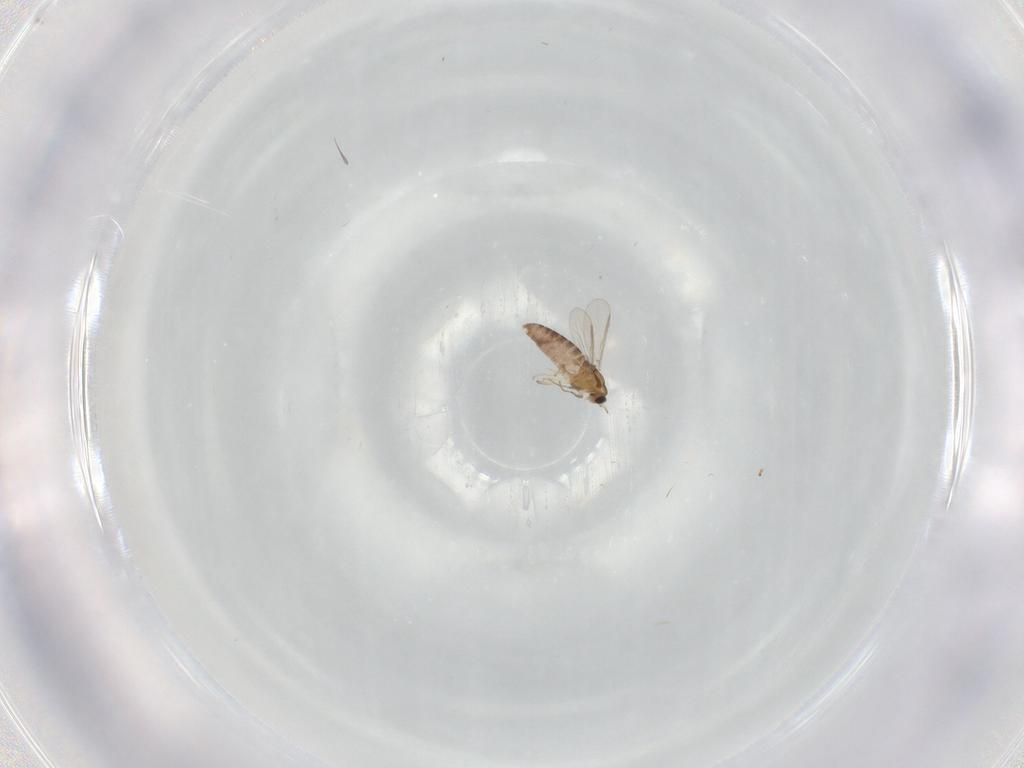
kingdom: Animalia
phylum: Arthropoda
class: Insecta
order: Diptera
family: Chironomidae
